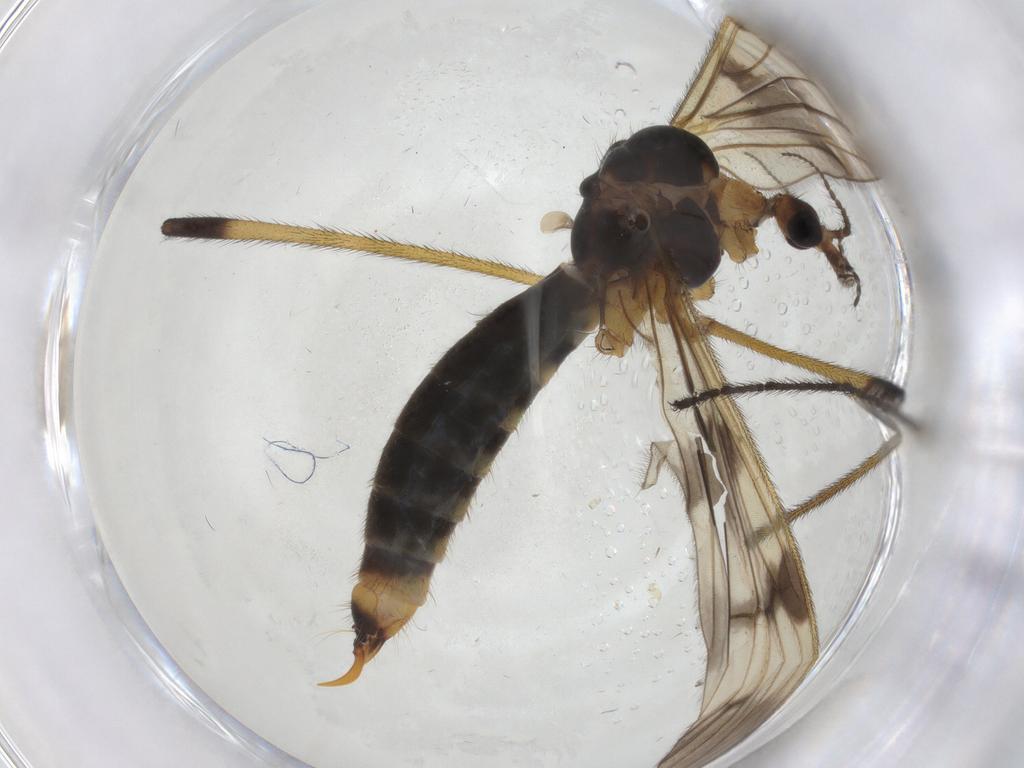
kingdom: Animalia
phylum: Arthropoda
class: Insecta
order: Diptera
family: Limoniidae
